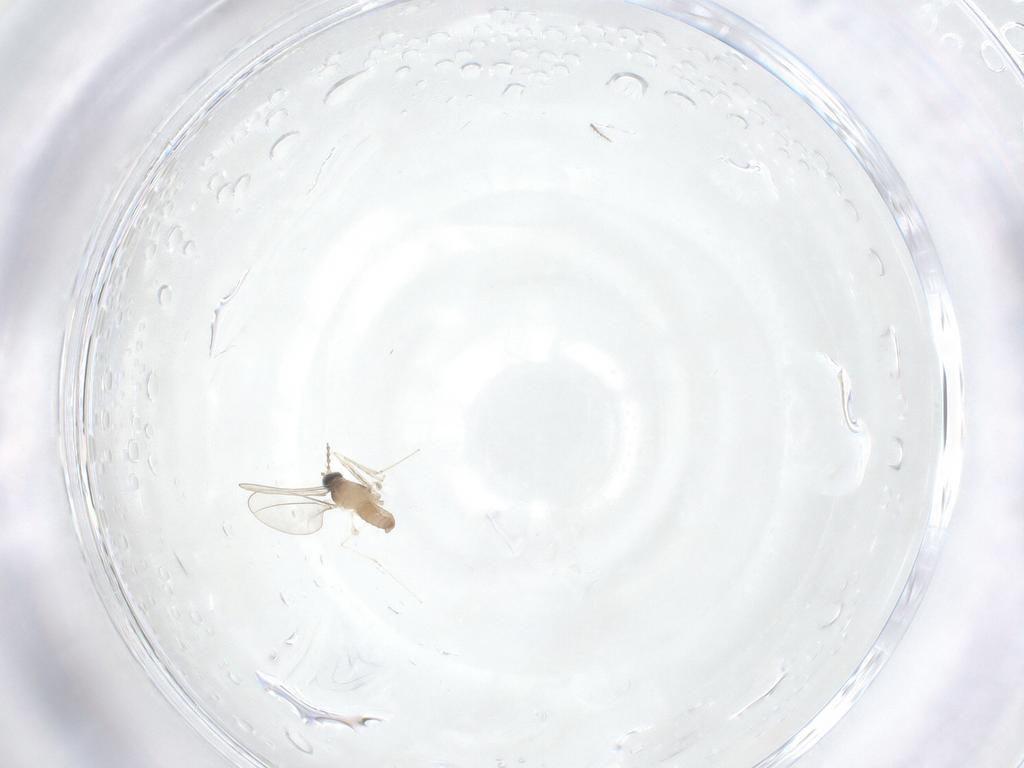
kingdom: Animalia
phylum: Arthropoda
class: Insecta
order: Diptera
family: Cecidomyiidae
